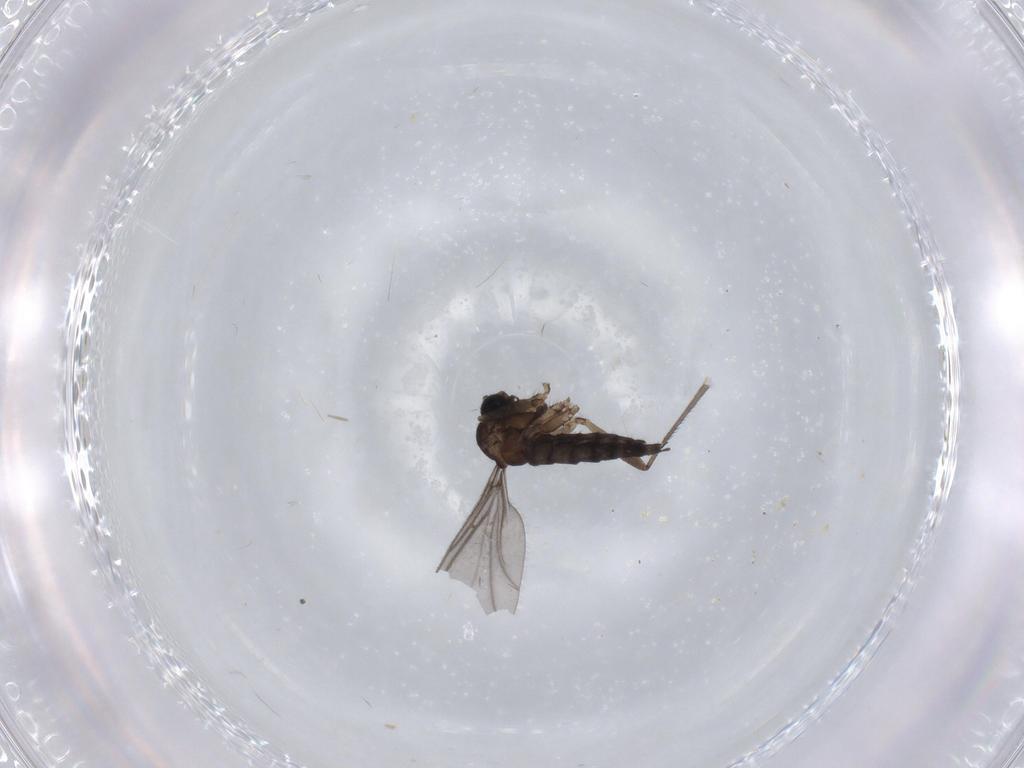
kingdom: Animalia
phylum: Arthropoda
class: Insecta
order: Diptera
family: Sciaridae
